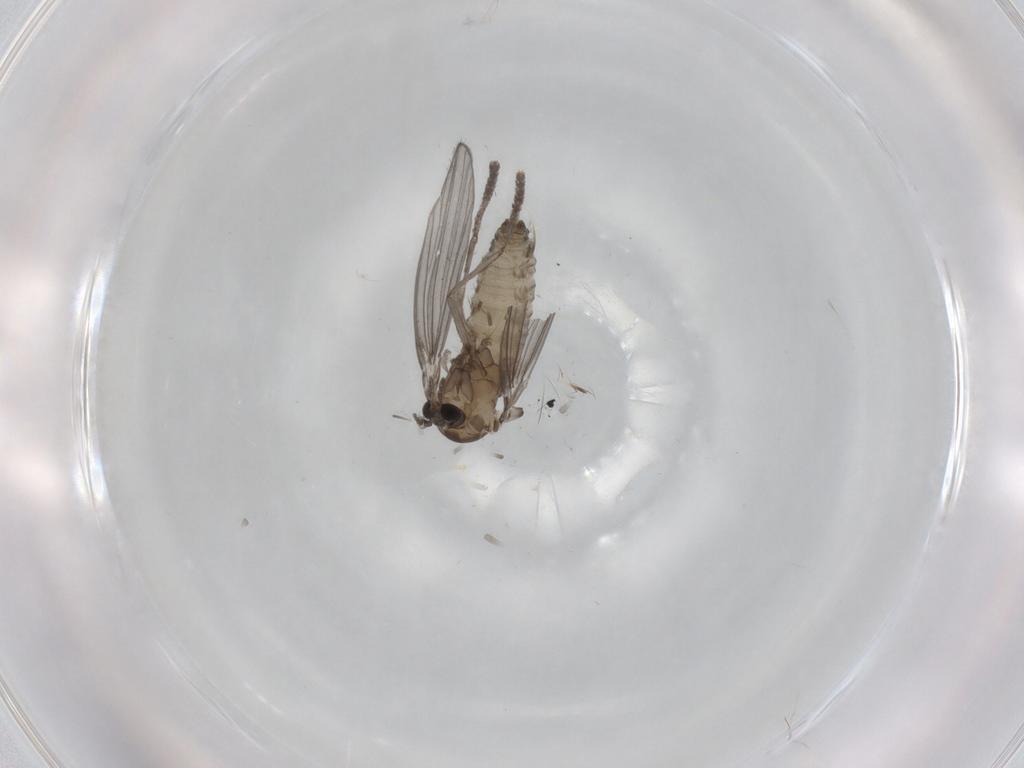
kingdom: Animalia
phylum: Arthropoda
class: Insecta
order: Diptera
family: Psychodidae
